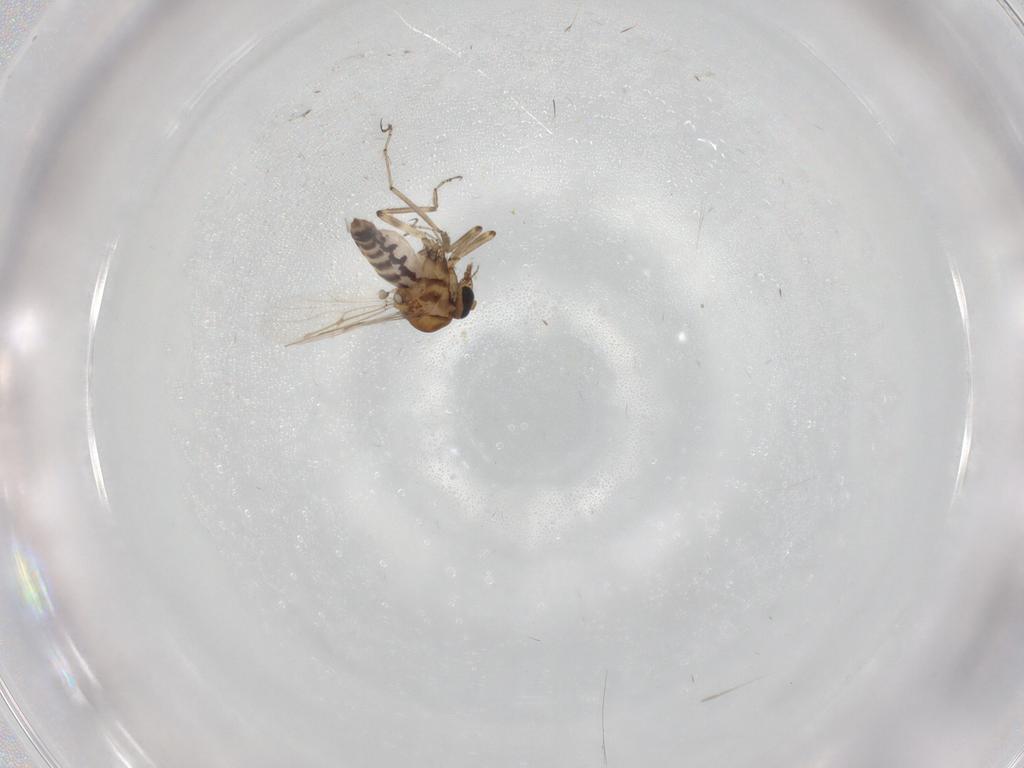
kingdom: Animalia
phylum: Arthropoda
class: Insecta
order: Diptera
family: Ceratopogonidae
